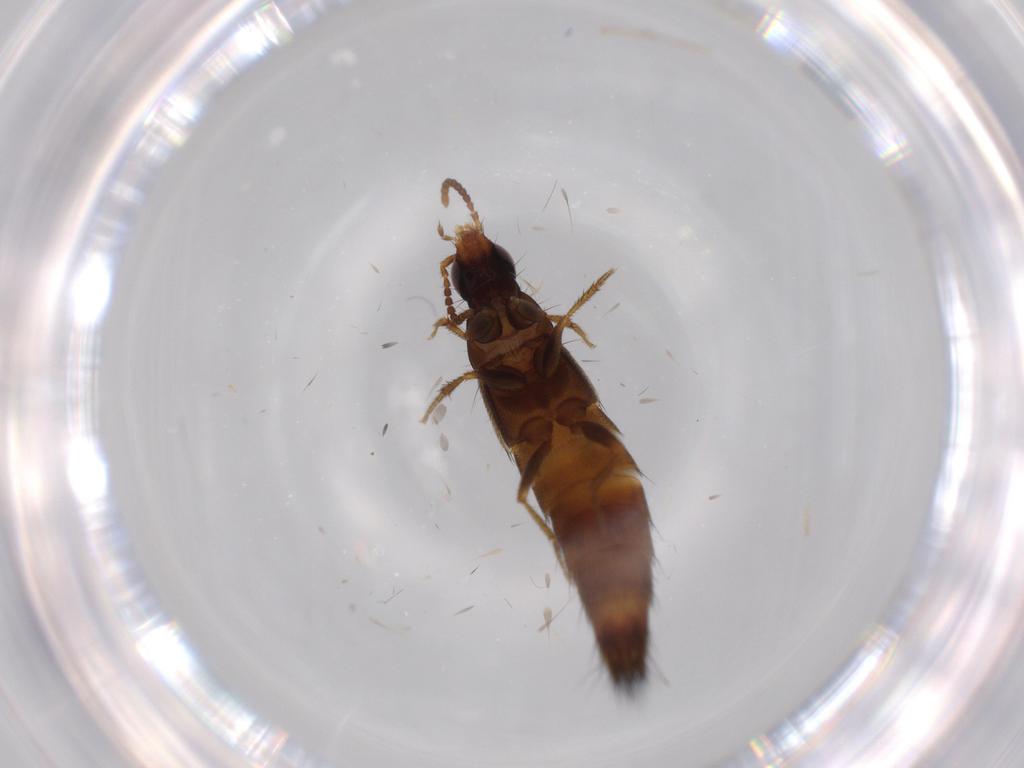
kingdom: Animalia
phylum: Arthropoda
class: Insecta
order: Coleoptera
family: Staphylinidae
